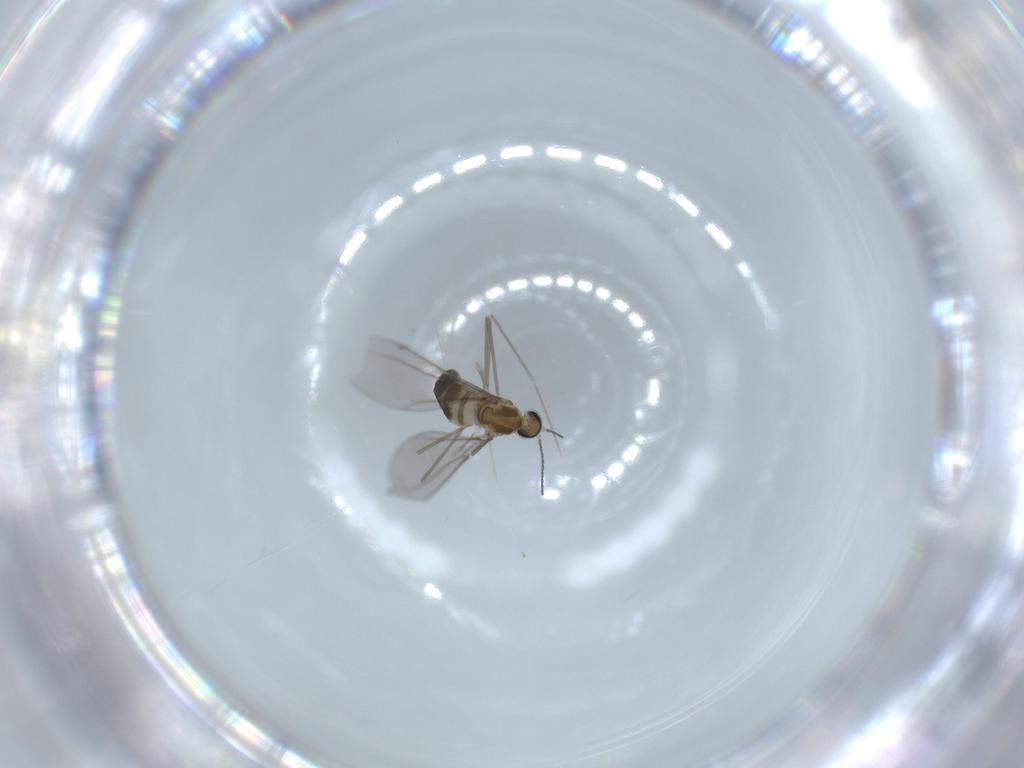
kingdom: Animalia
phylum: Arthropoda
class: Insecta
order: Diptera
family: Cecidomyiidae
